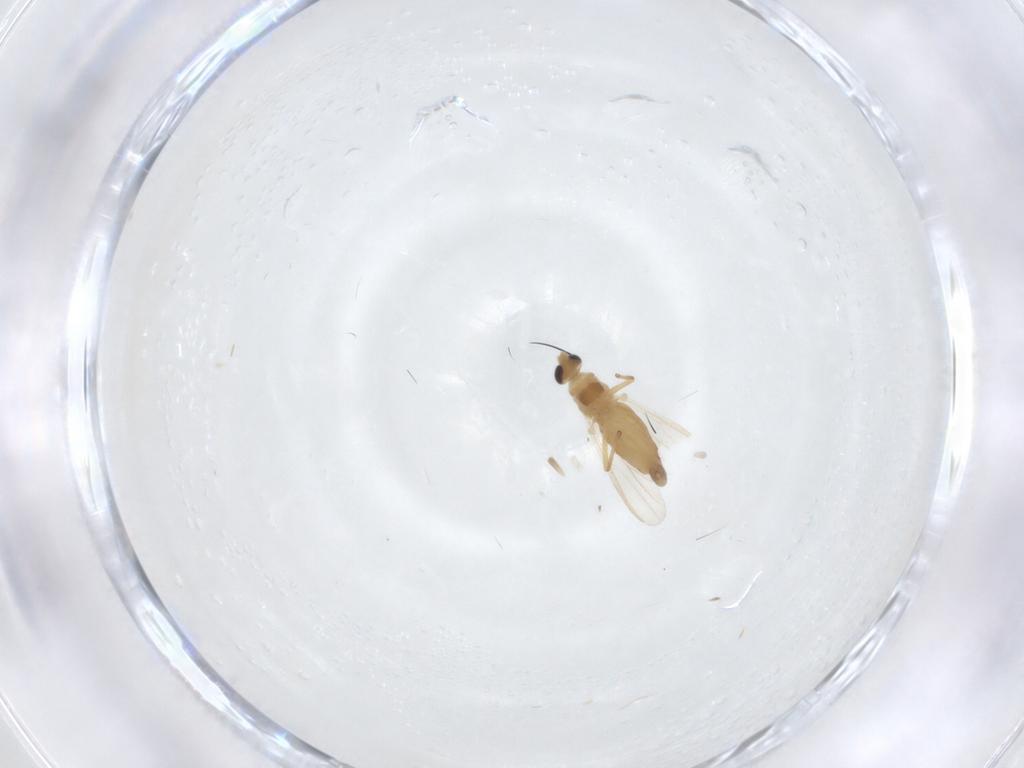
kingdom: Animalia
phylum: Arthropoda
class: Insecta
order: Diptera
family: Chironomidae
